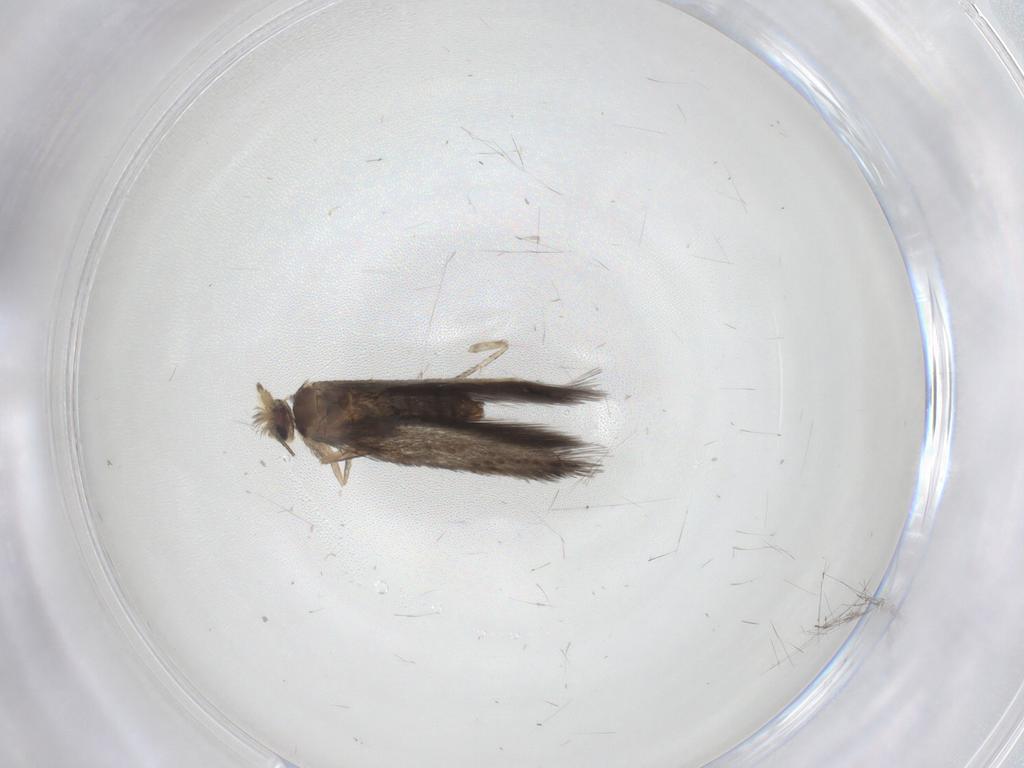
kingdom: Animalia
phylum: Arthropoda
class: Insecta
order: Lepidoptera
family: Nepticulidae
